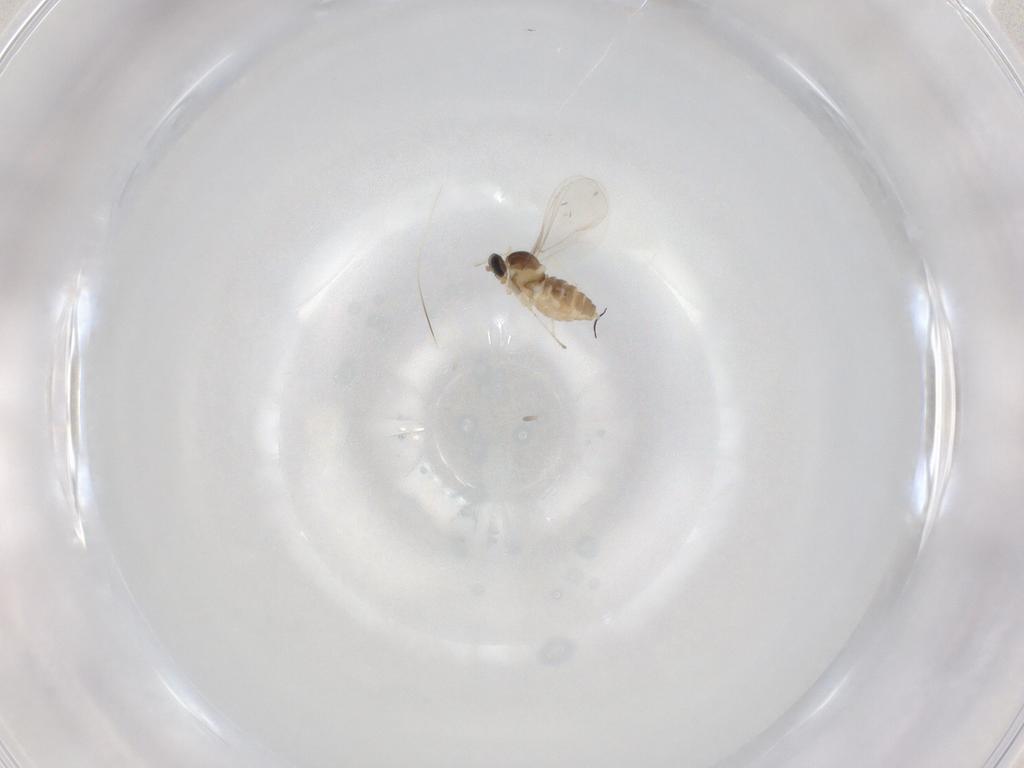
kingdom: Animalia
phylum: Arthropoda
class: Insecta
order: Diptera
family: Cecidomyiidae
